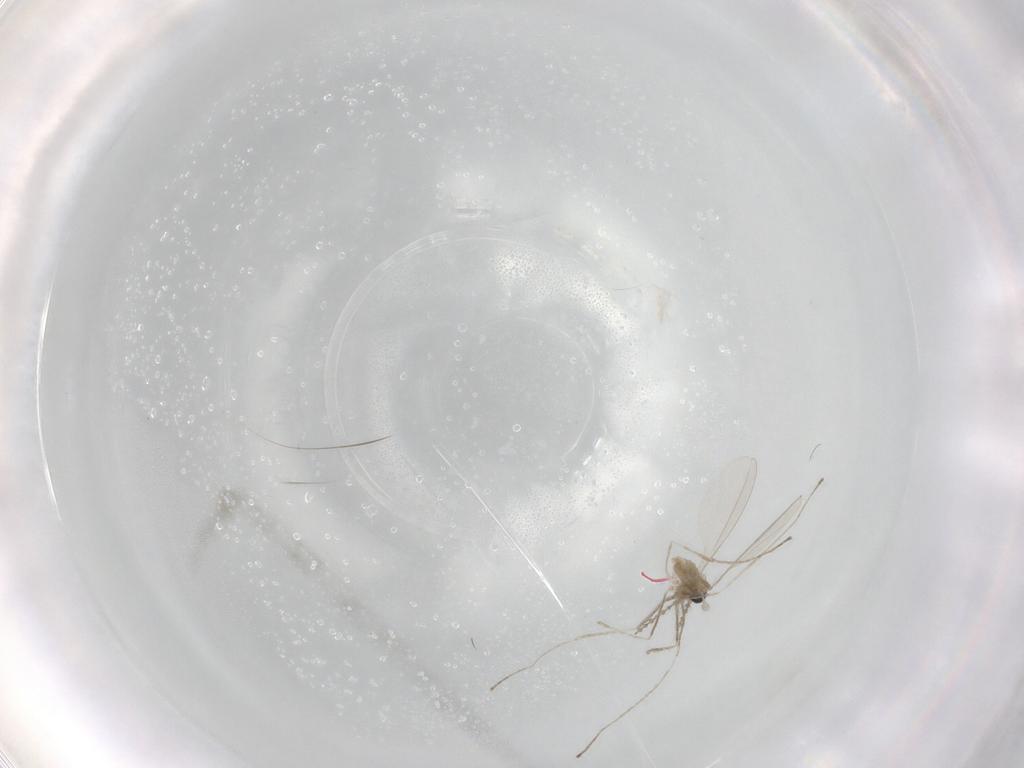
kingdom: Animalia
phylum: Arthropoda
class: Insecta
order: Diptera
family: Cecidomyiidae
